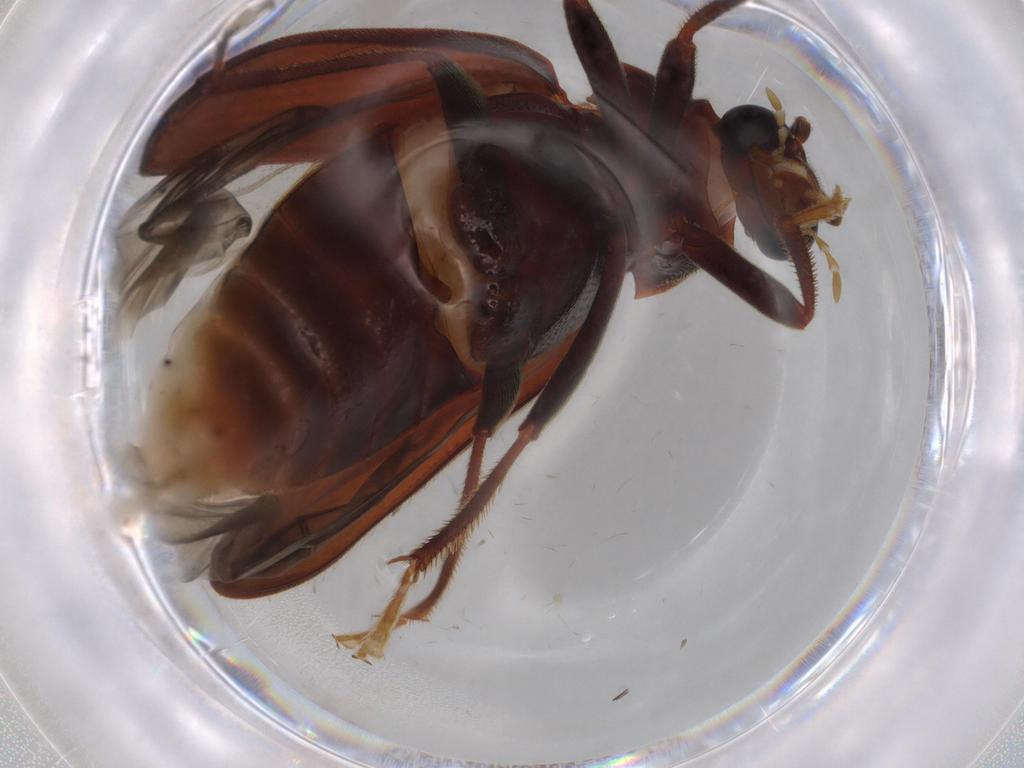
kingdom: Animalia
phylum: Arthropoda
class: Insecta
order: Coleoptera
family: Ptilodactylidae
